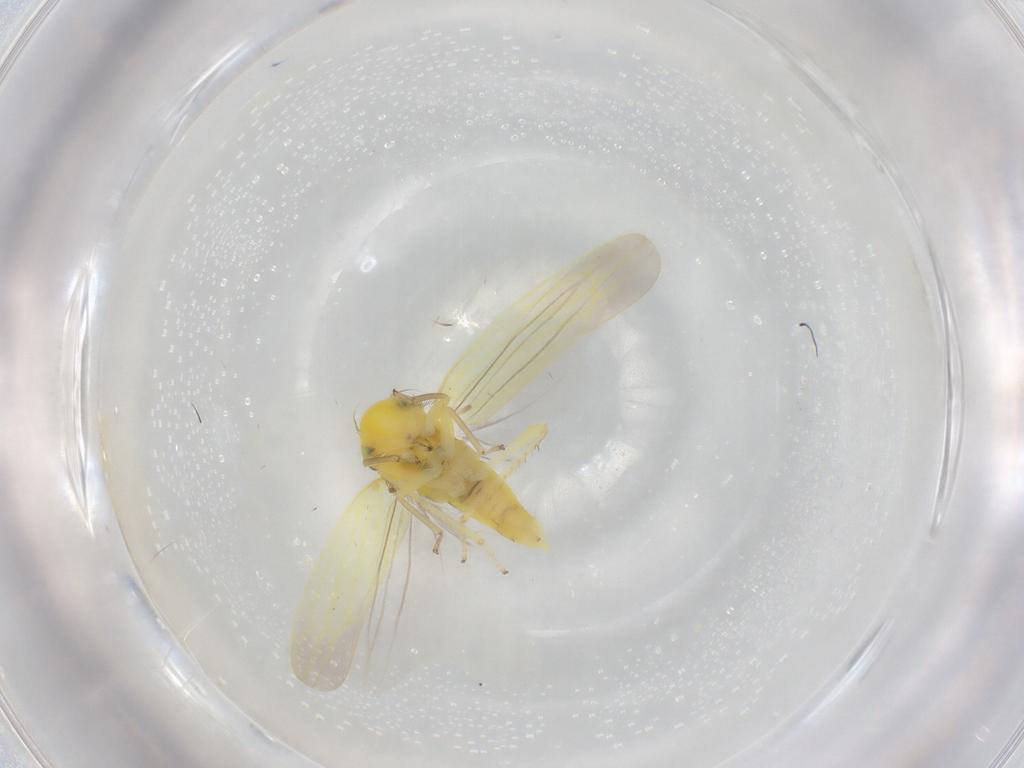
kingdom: Animalia
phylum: Arthropoda
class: Insecta
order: Hemiptera
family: Cicadellidae
